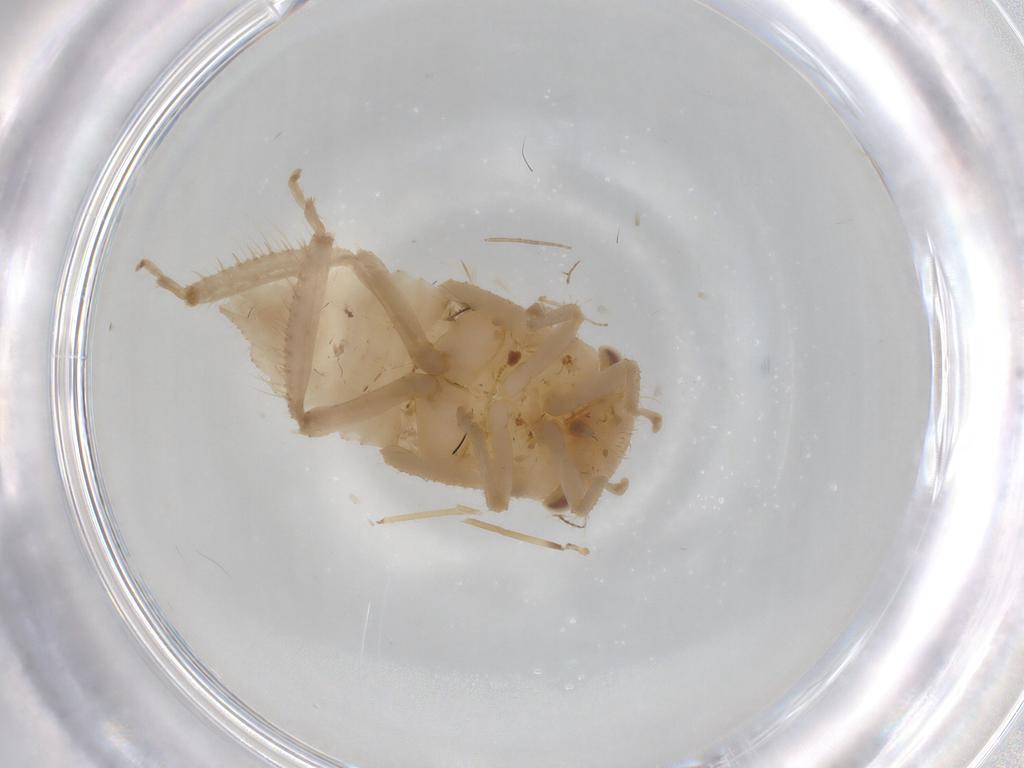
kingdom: Animalia
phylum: Arthropoda
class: Insecta
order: Hemiptera
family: Cicadellidae
